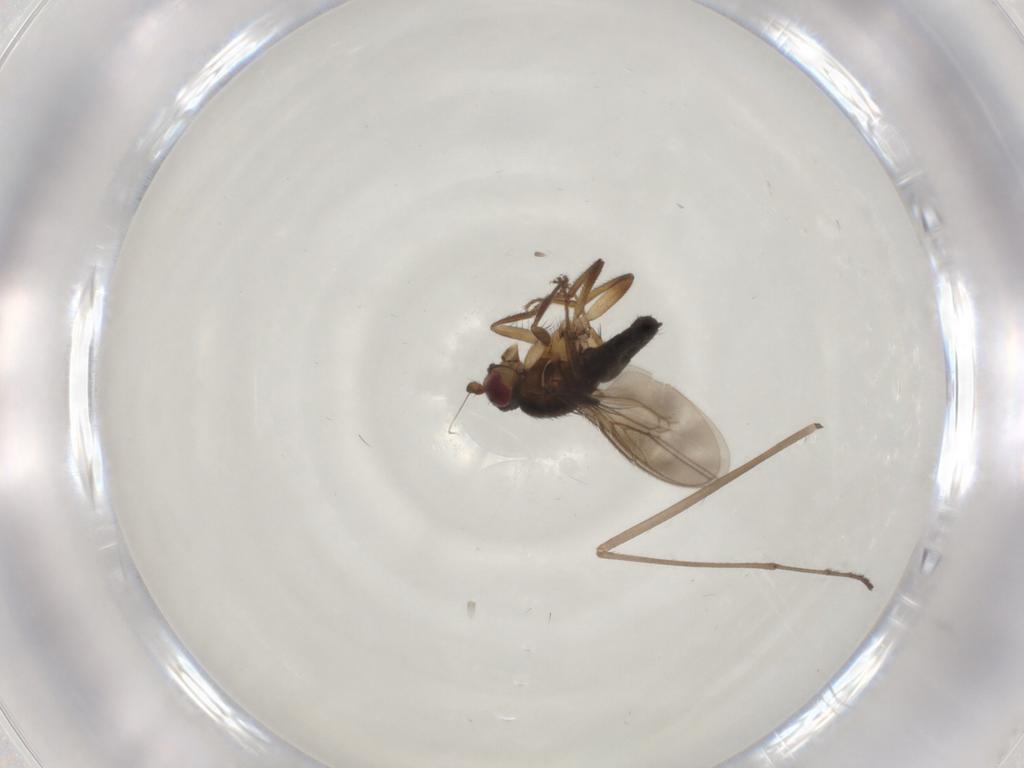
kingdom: Animalia
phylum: Arthropoda
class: Insecta
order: Diptera
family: Sphaeroceridae
